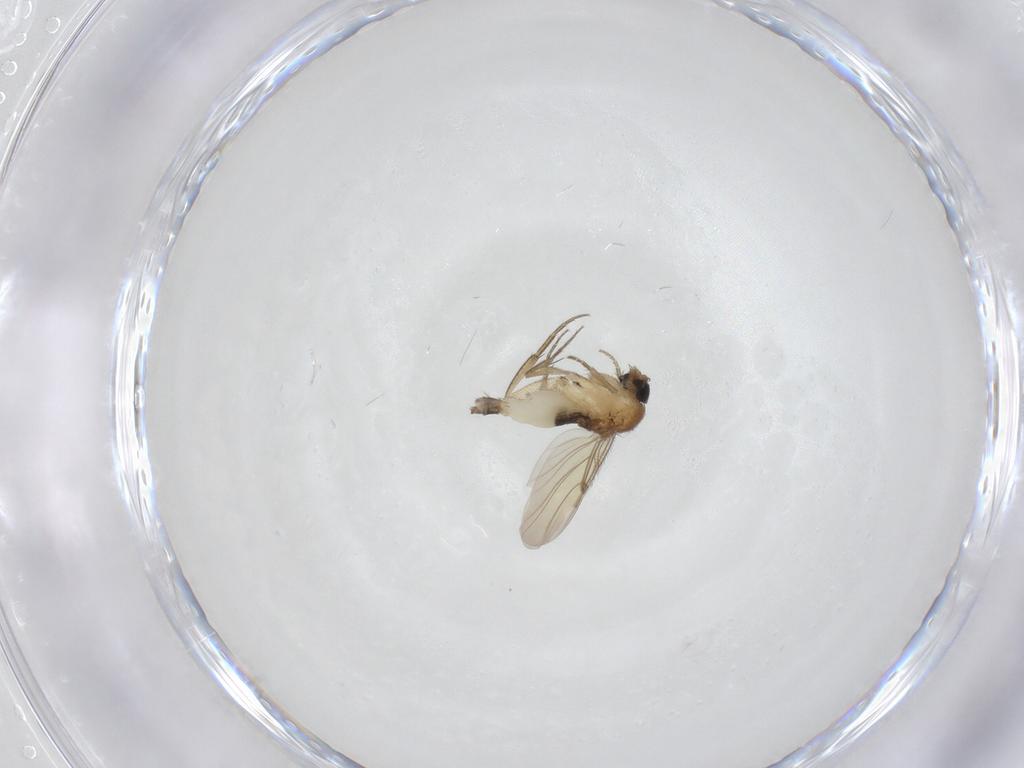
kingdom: Animalia
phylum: Arthropoda
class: Insecta
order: Diptera
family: Phoridae
